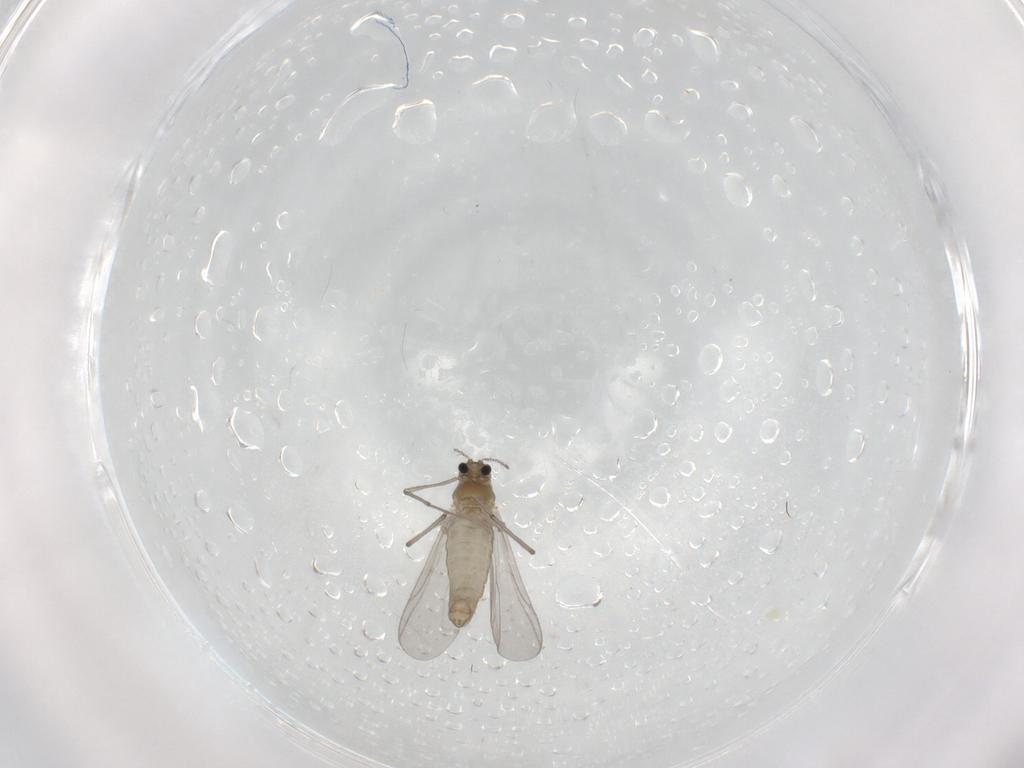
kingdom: Animalia
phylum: Arthropoda
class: Insecta
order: Diptera
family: Chironomidae
